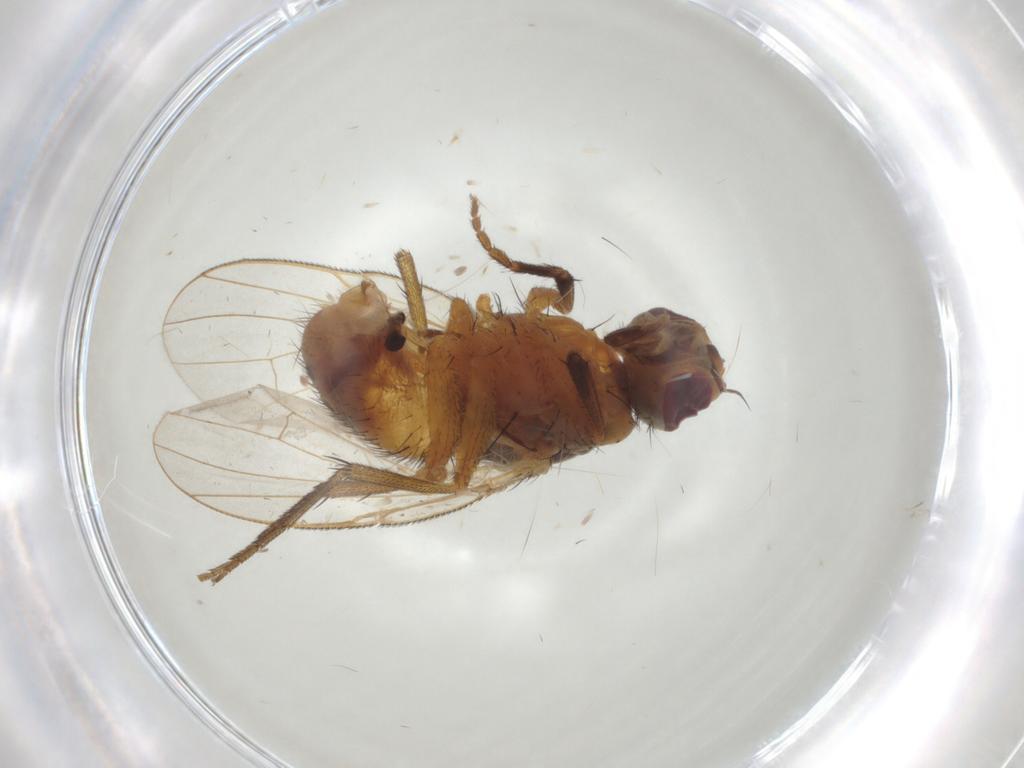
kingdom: Animalia
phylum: Arthropoda
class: Insecta
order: Diptera
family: Muscidae
